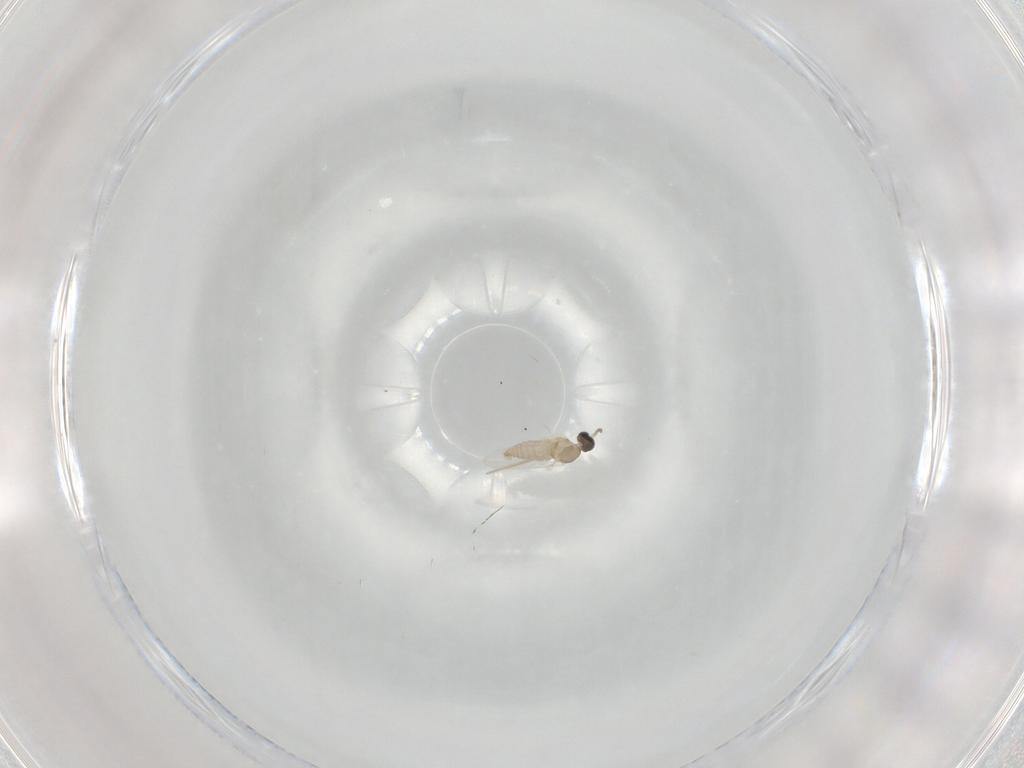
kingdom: Animalia
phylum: Arthropoda
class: Insecta
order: Diptera
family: Cecidomyiidae
